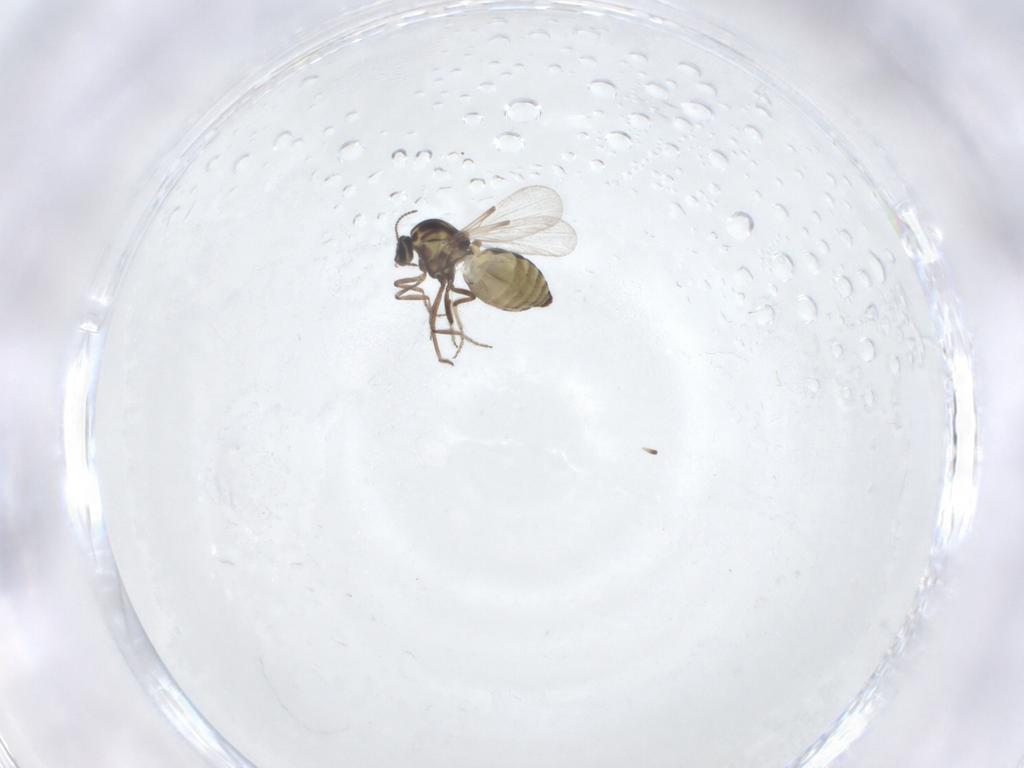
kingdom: Animalia
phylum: Arthropoda
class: Insecta
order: Diptera
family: Ceratopogonidae
